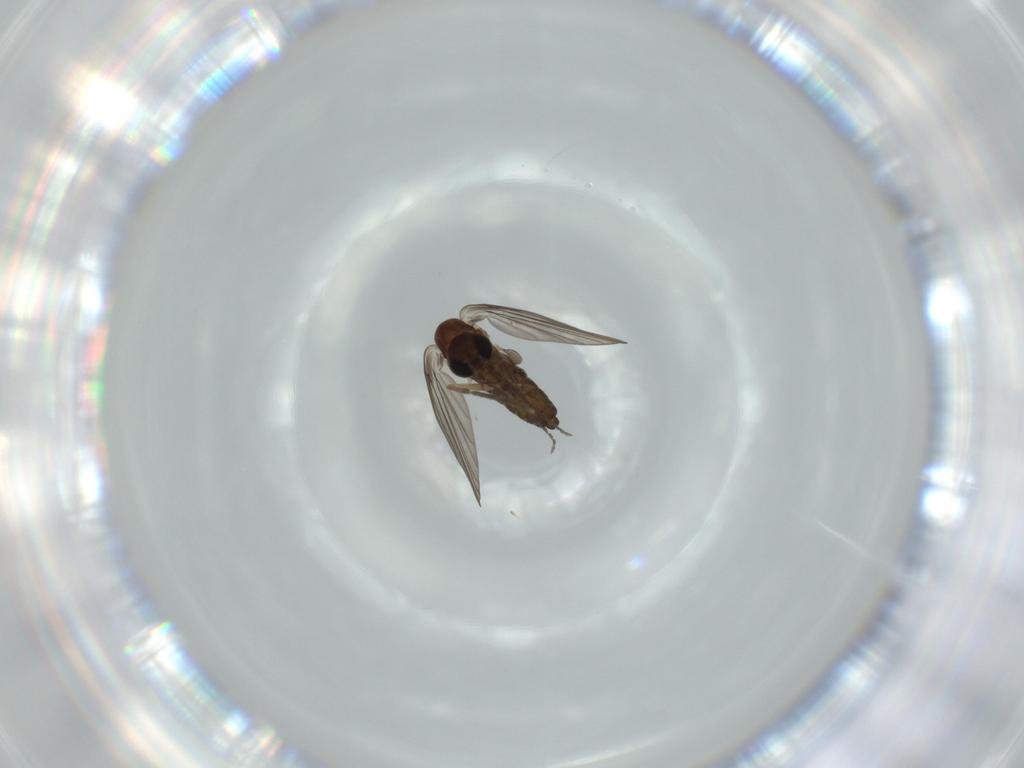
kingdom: Animalia
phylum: Arthropoda
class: Insecta
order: Diptera
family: Psychodidae
